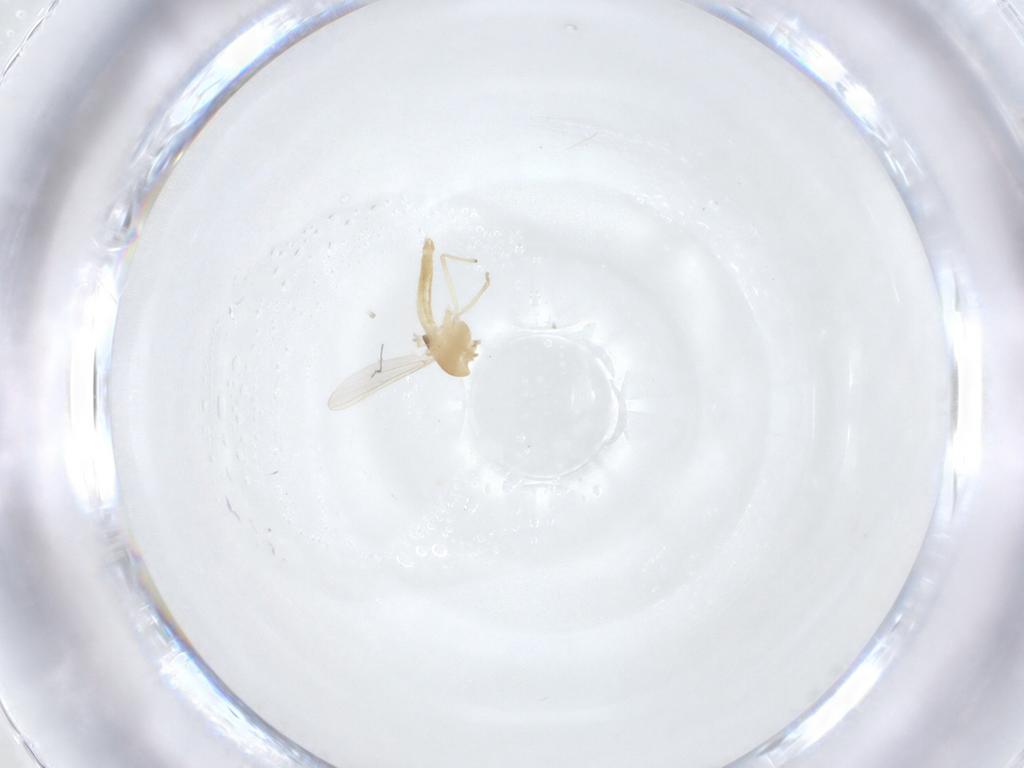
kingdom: Animalia
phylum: Arthropoda
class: Insecta
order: Diptera
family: Chironomidae
